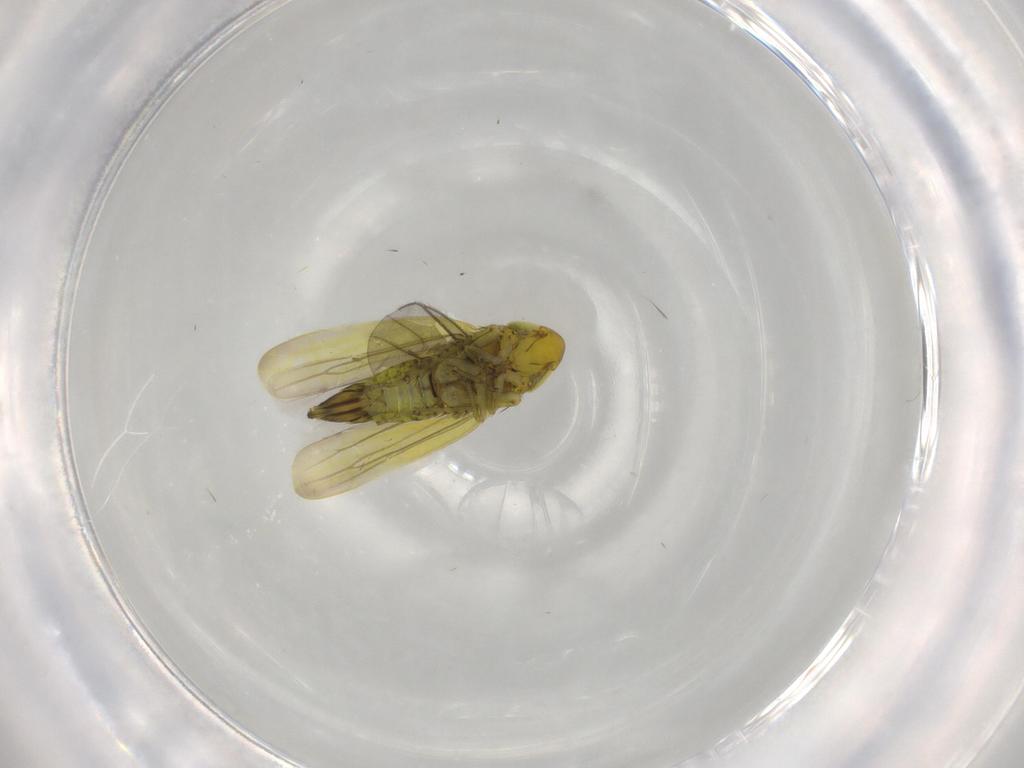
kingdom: Animalia
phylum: Arthropoda
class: Insecta
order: Hemiptera
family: Cicadellidae
